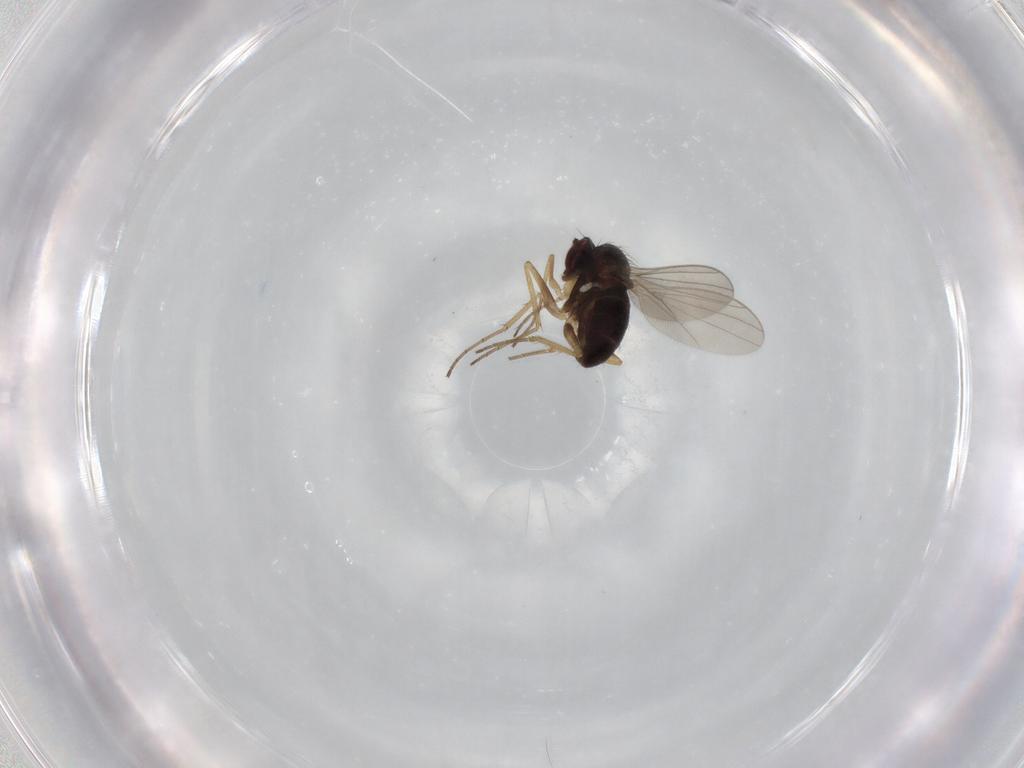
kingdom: Animalia
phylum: Arthropoda
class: Insecta
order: Diptera
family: Dolichopodidae
